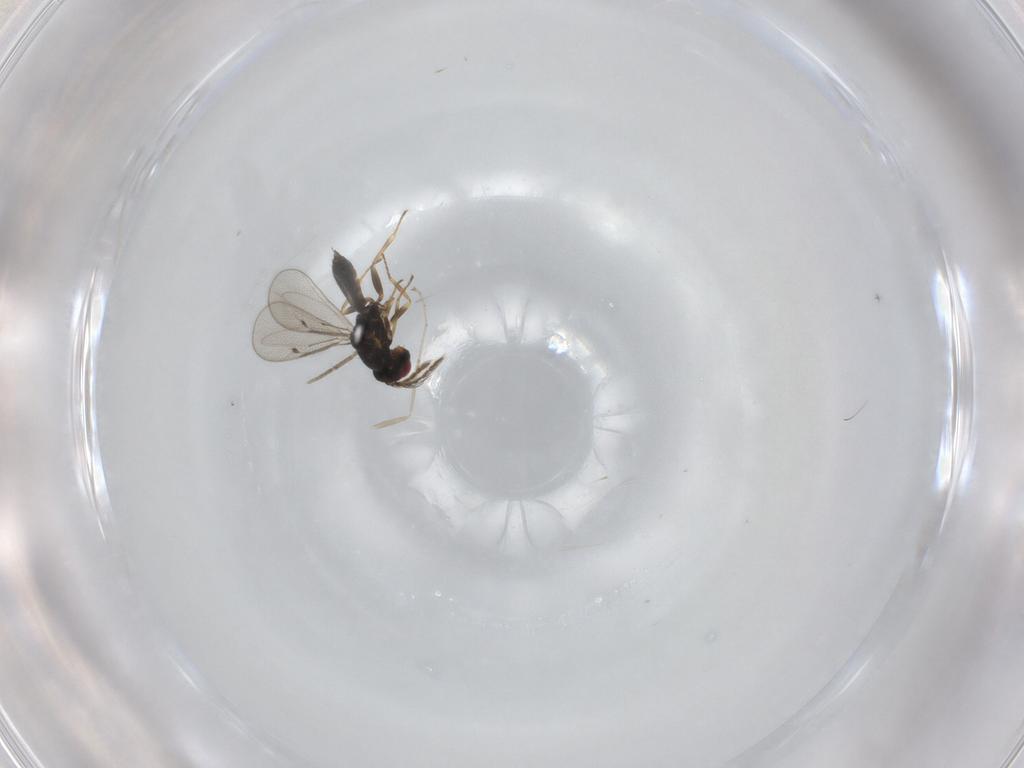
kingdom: Animalia
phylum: Arthropoda
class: Insecta
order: Hymenoptera
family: Eulophidae
